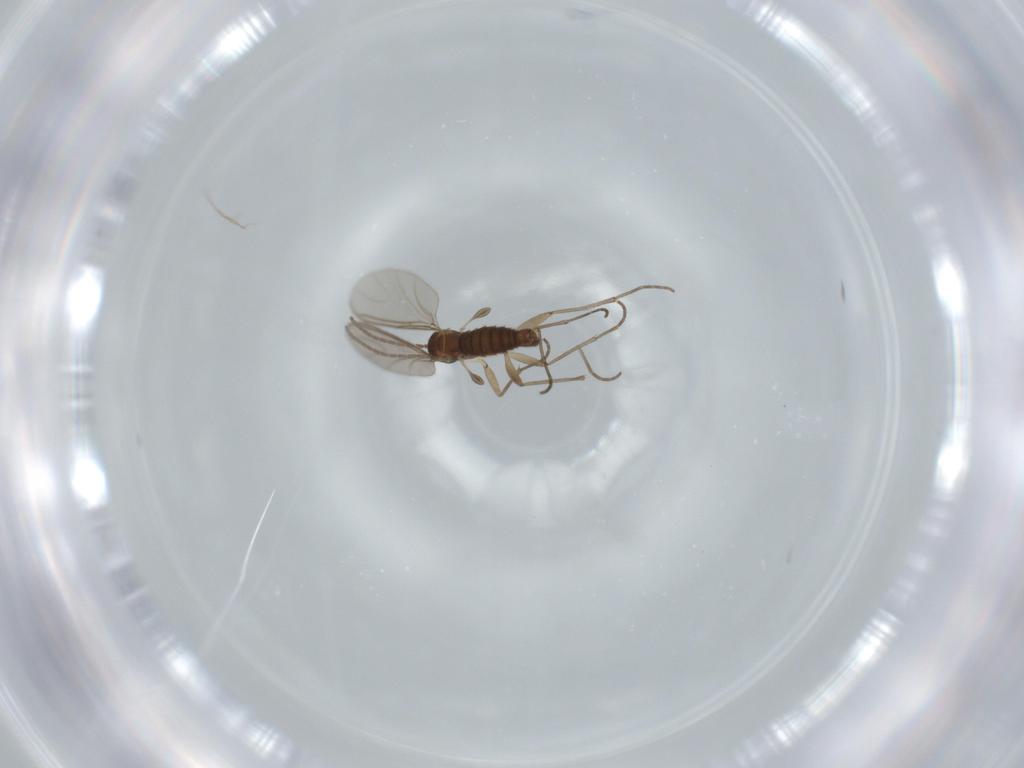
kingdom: Animalia
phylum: Arthropoda
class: Insecta
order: Diptera
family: Sciaridae
